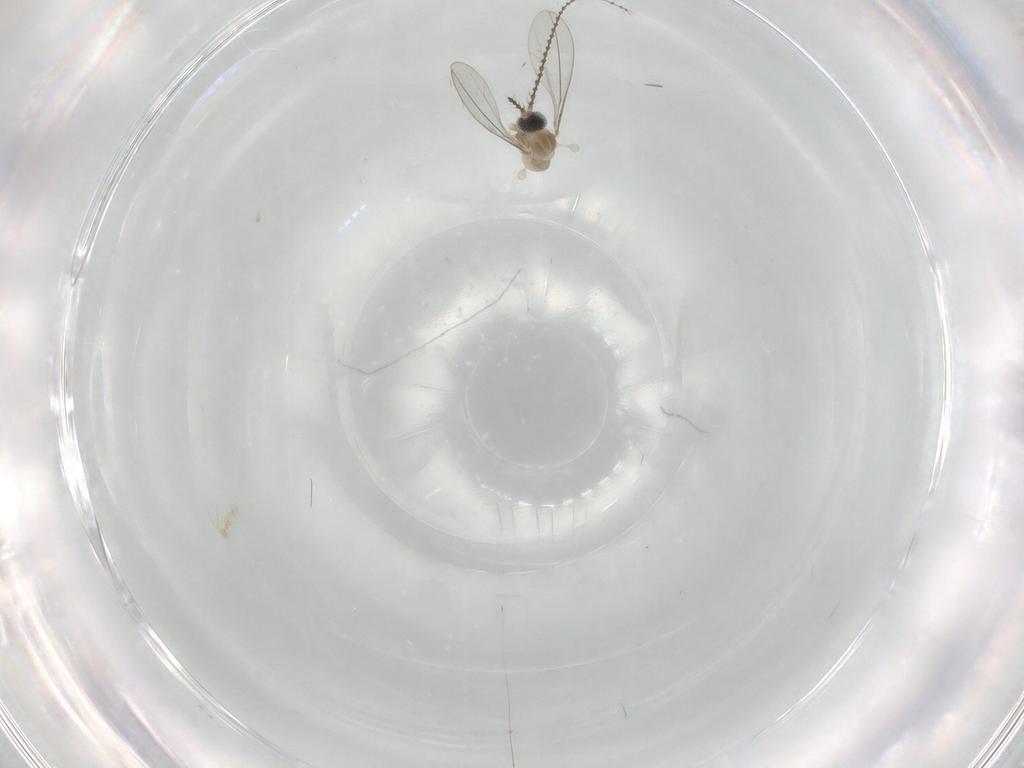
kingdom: Animalia
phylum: Arthropoda
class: Insecta
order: Diptera
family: Cecidomyiidae
